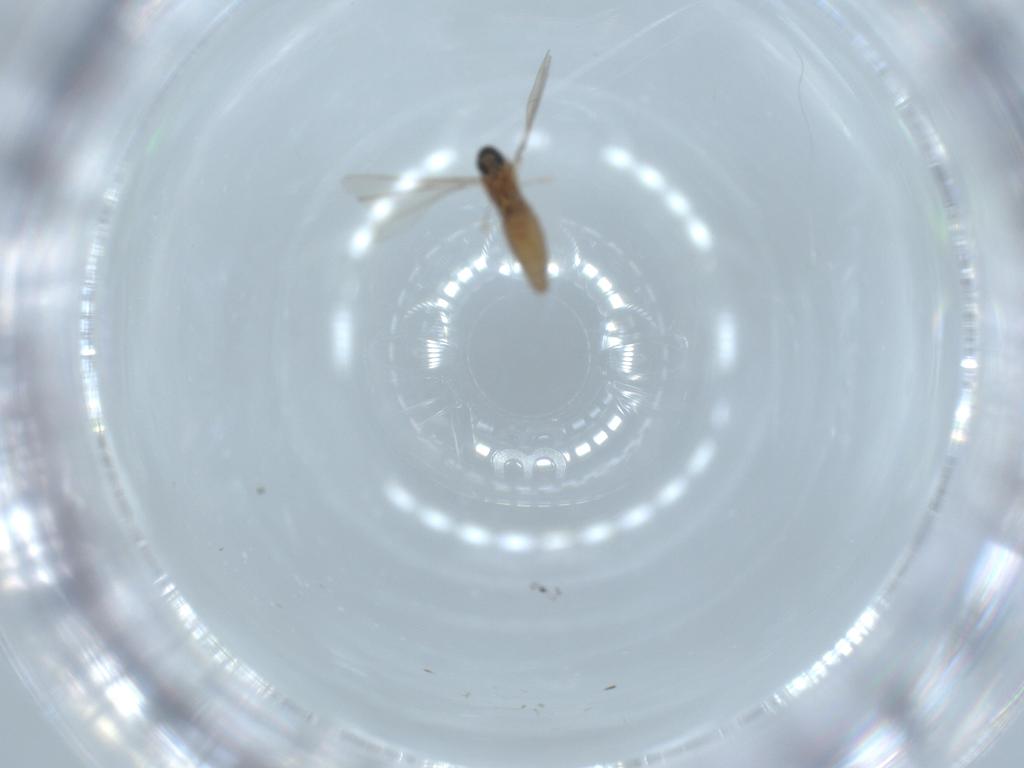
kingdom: Animalia
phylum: Arthropoda
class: Insecta
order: Diptera
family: Cecidomyiidae
